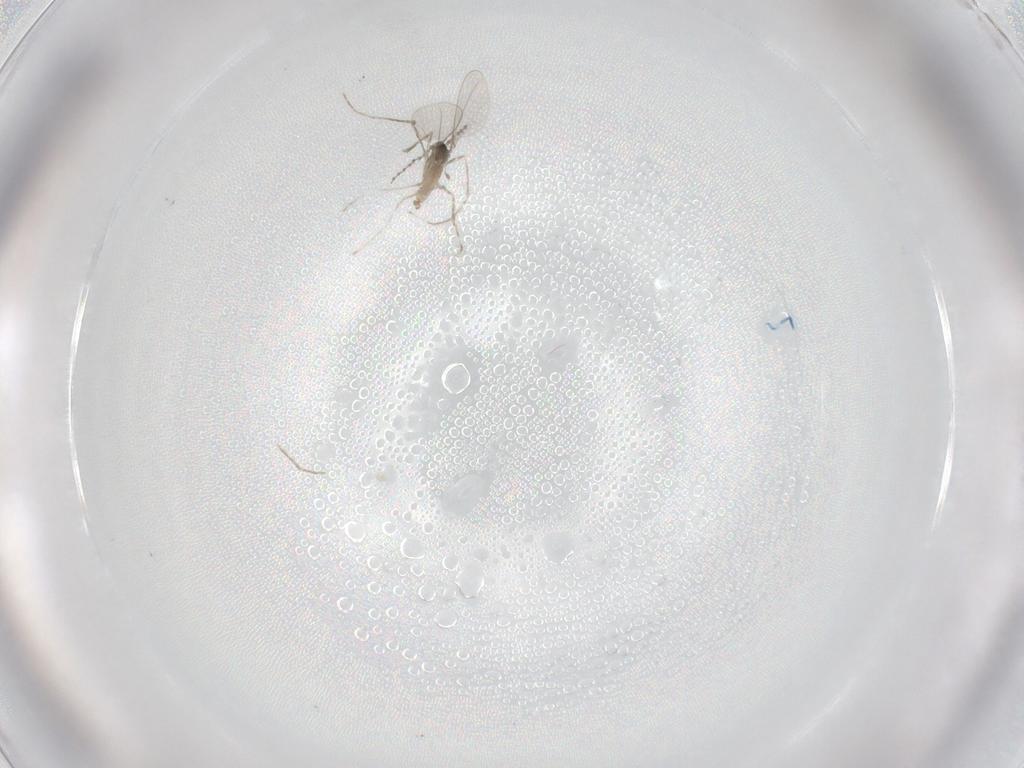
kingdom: Animalia
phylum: Arthropoda
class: Insecta
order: Diptera
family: Cecidomyiidae
